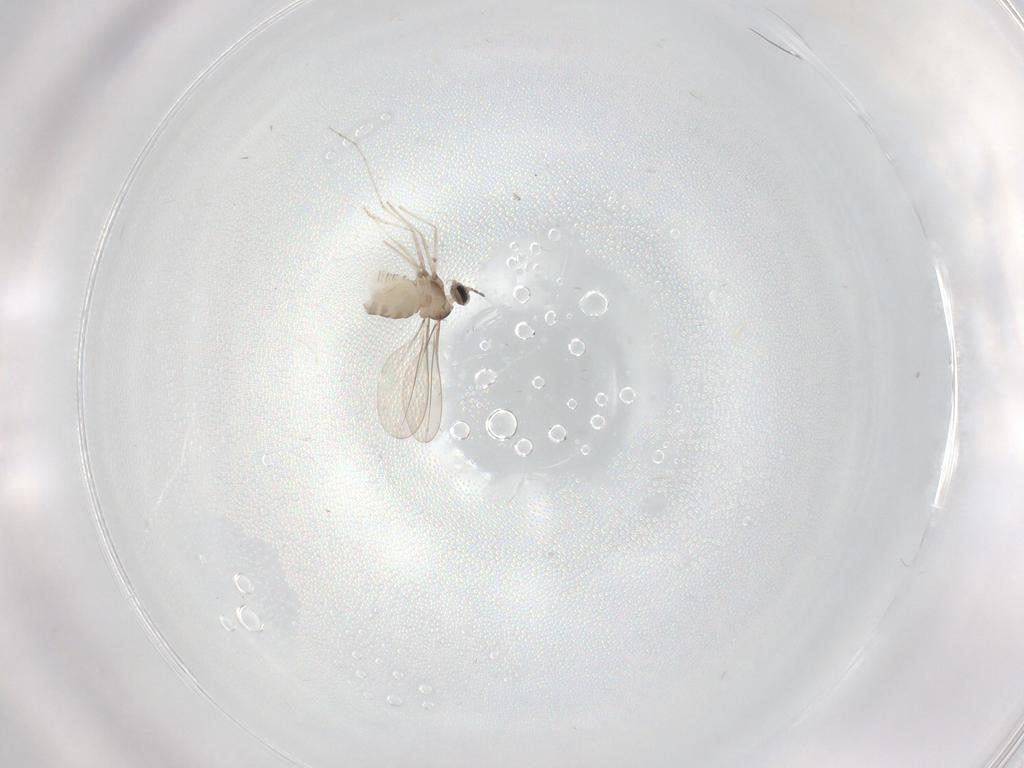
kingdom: Animalia
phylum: Arthropoda
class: Insecta
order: Diptera
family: Cecidomyiidae
